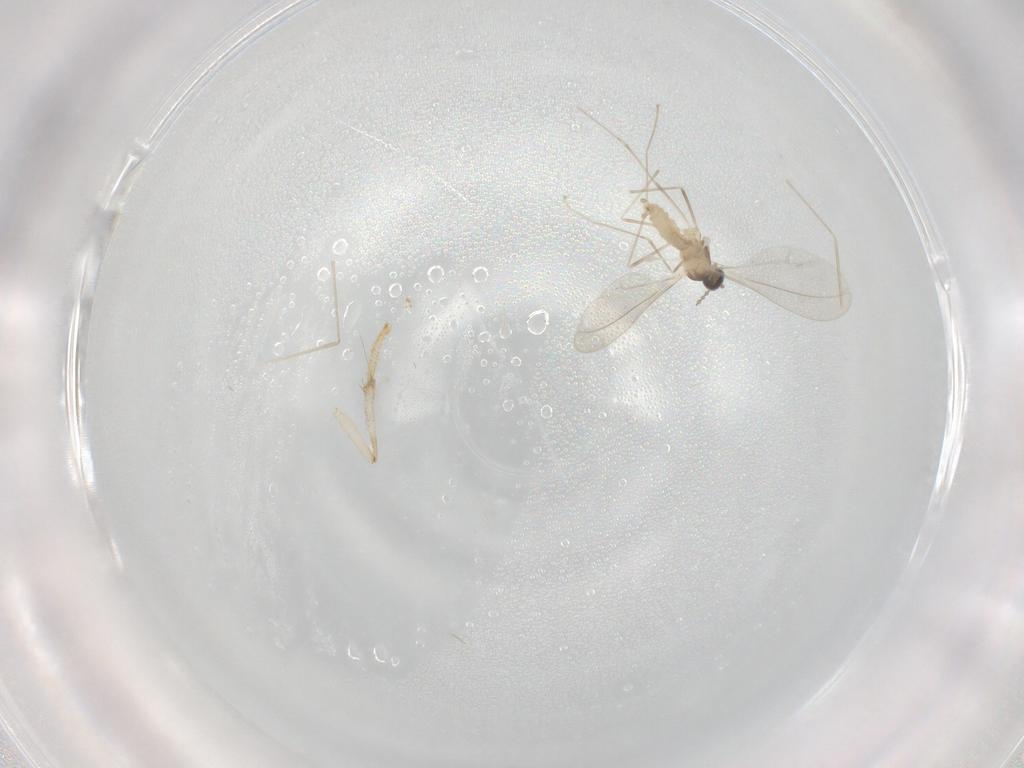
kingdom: Animalia
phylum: Arthropoda
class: Insecta
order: Diptera
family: Cecidomyiidae
